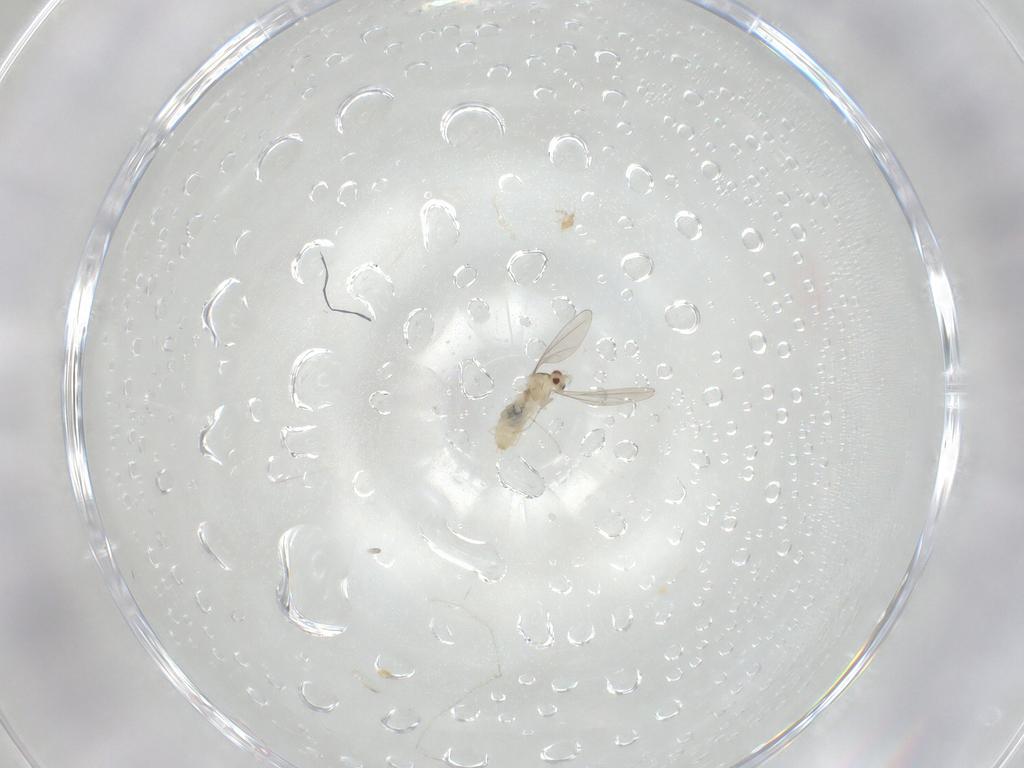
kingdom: Animalia
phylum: Arthropoda
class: Insecta
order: Diptera
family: Cecidomyiidae
